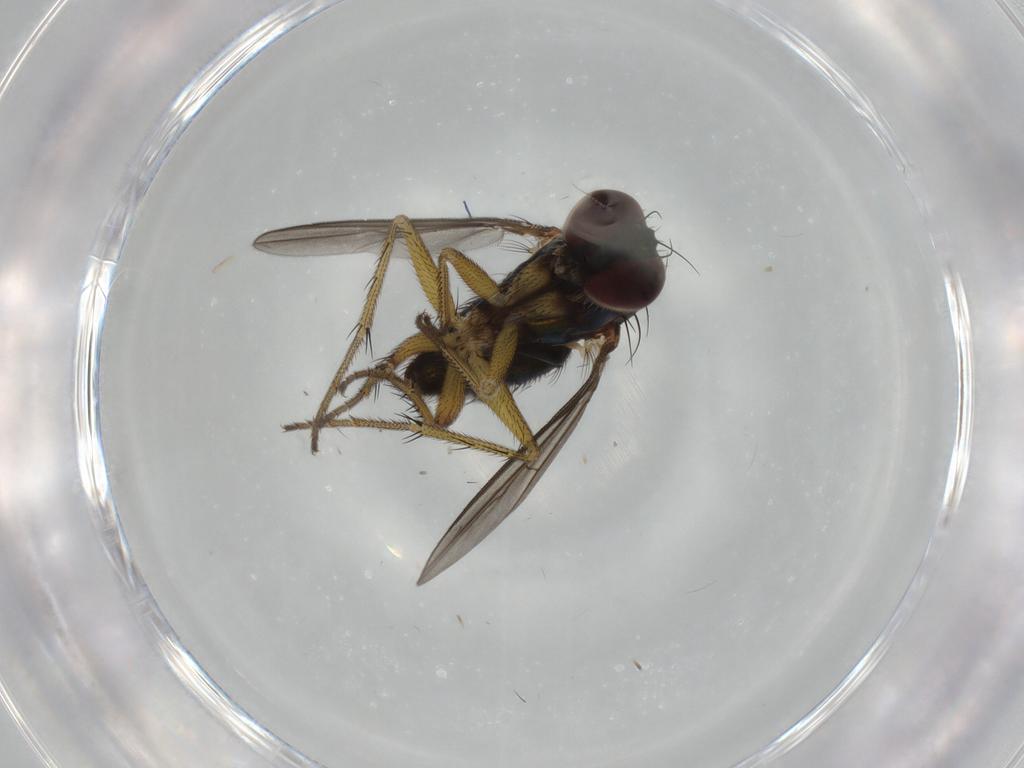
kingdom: Animalia
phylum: Arthropoda
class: Insecta
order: Diptera
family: Dolichopodidae
